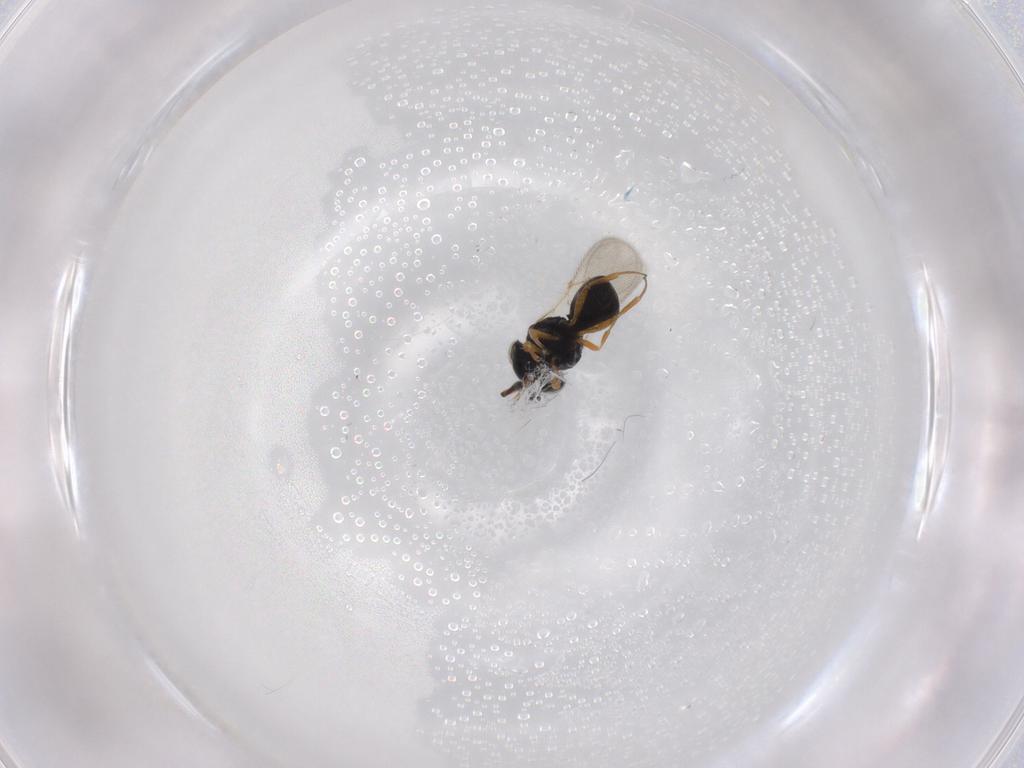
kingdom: Animalia
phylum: Arthropoda
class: Insecta
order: Hymenoptera
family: Scelionidae
